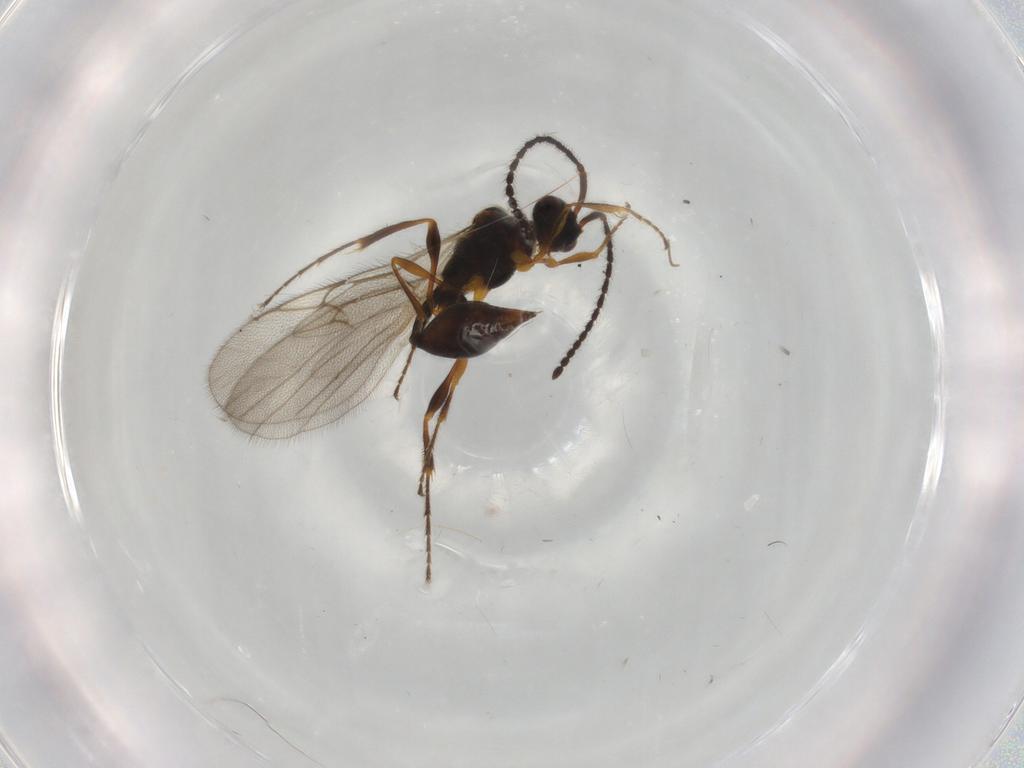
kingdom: Animalia
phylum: Arthropoda
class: Insecta
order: Hymenoptera
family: Diapriidae
